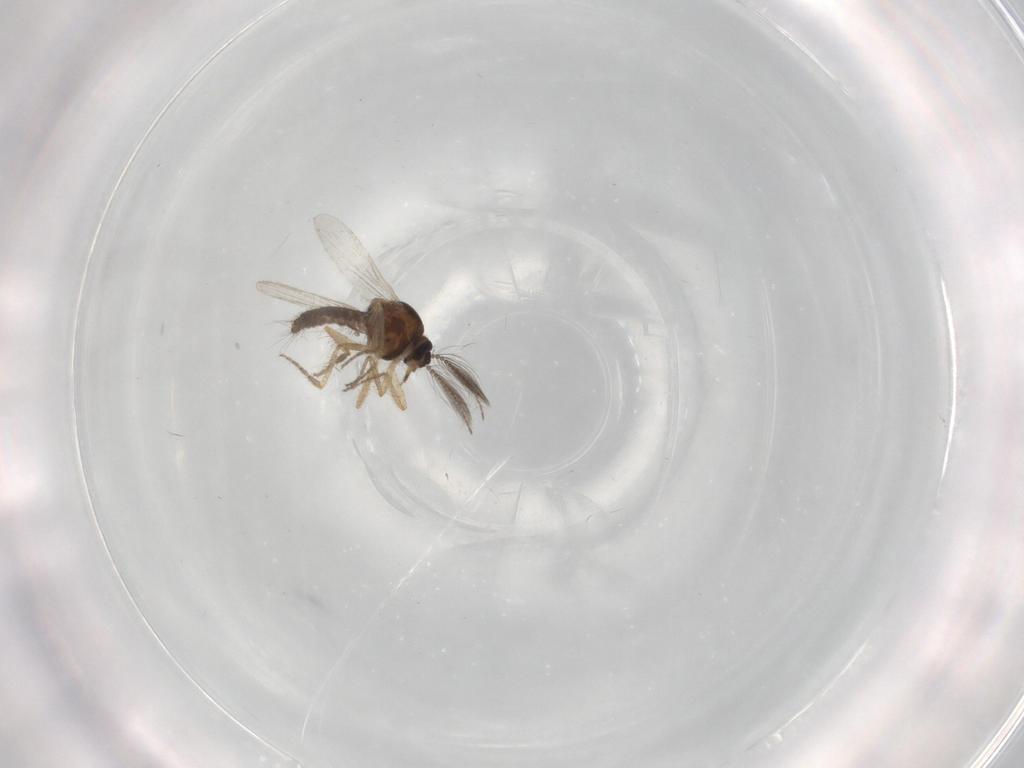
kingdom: Animalia
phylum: Arthropoda
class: Insecta
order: Diptera
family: Ceratopogonidae
